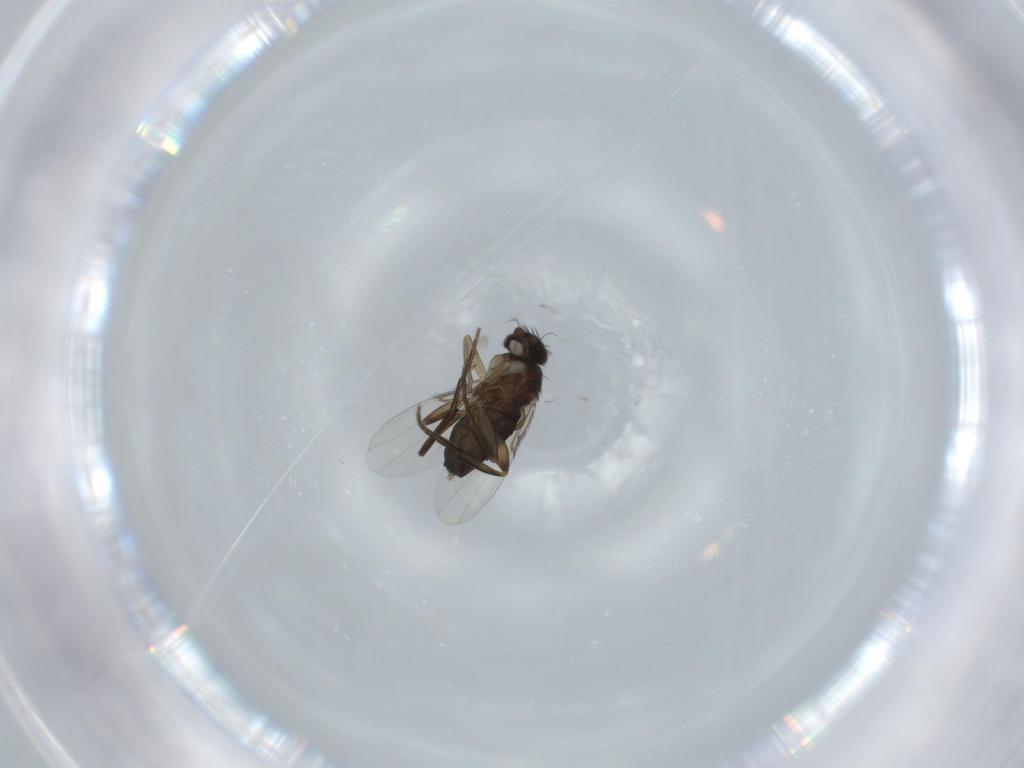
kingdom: Animalia
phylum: Arthropoda
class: Insecta
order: Diptera
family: Phoridae
